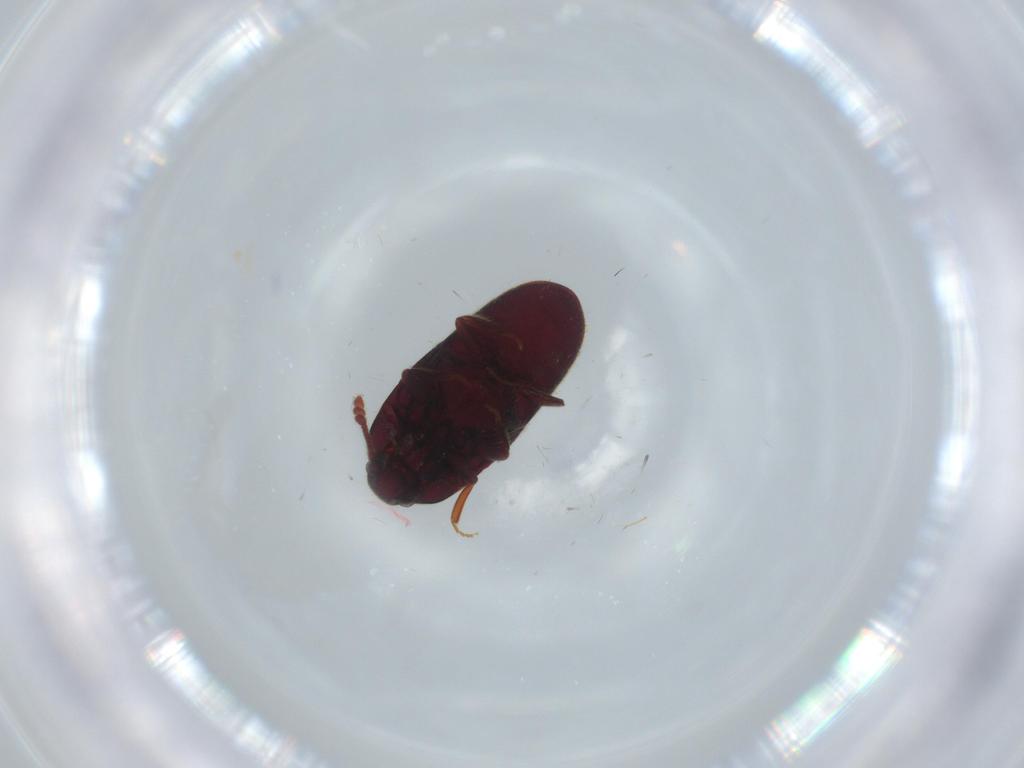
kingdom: Animalia
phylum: Arthropoda
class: Insecta
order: Coleoptera
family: Throscidae
